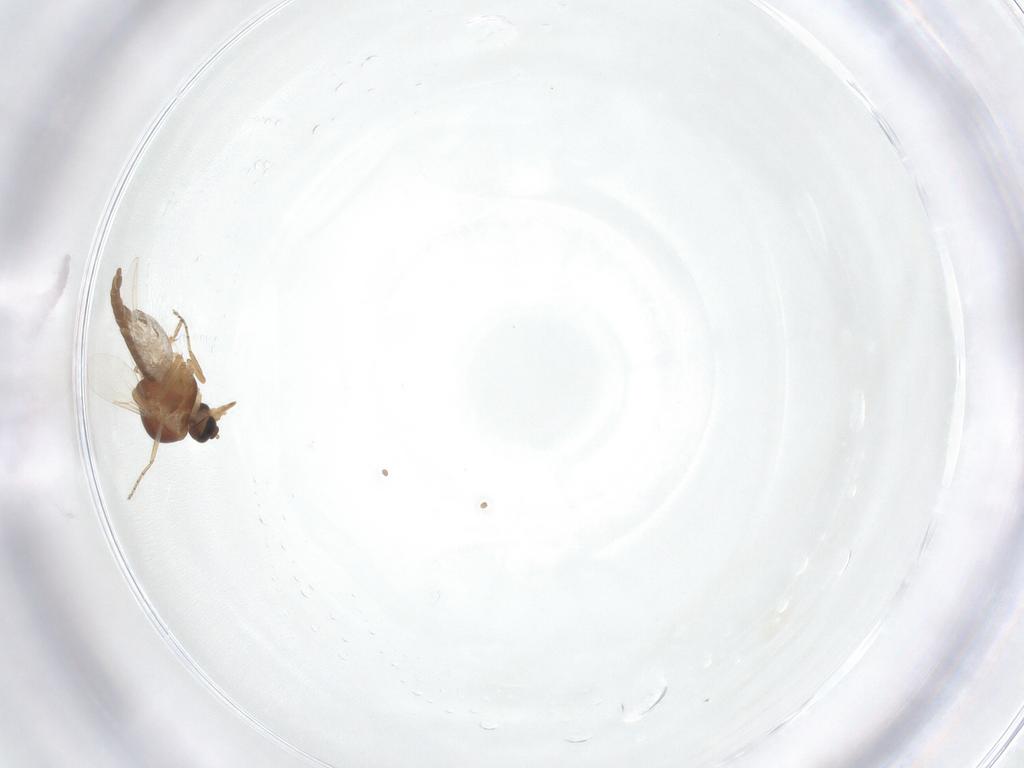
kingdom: Animalia
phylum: Arthropoda
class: Insecta
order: Diptera
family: Ceratopogonidae
